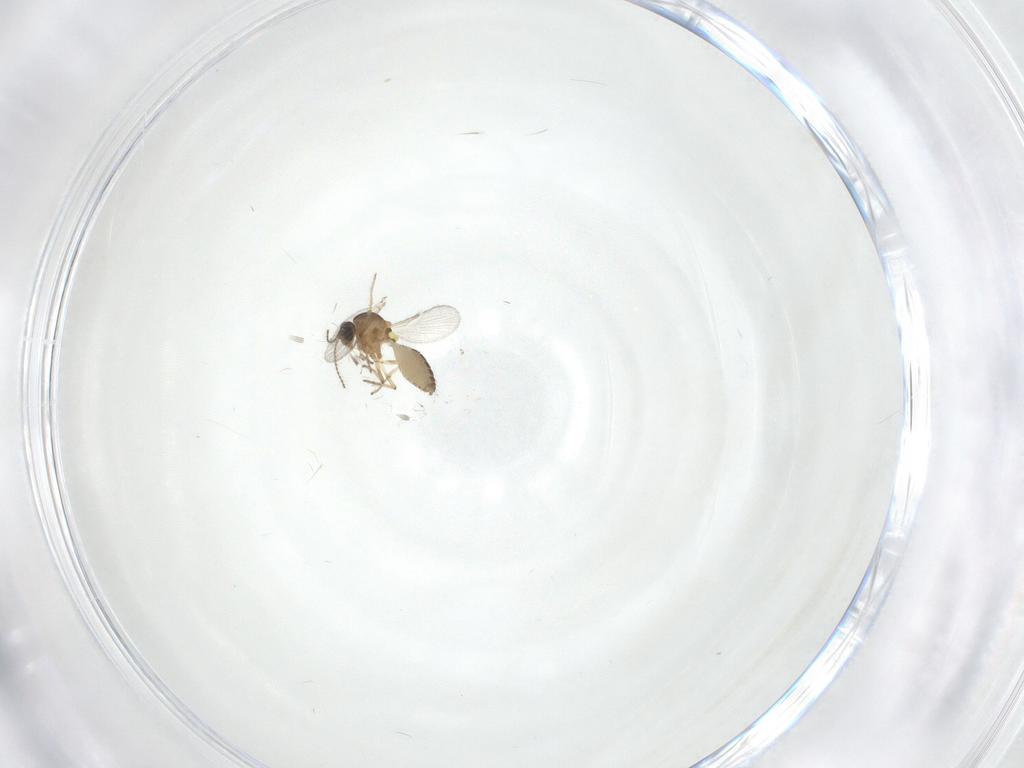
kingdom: Animalia
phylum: Arthropoda
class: Insecta
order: Diptera
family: Ceratopogonidae
